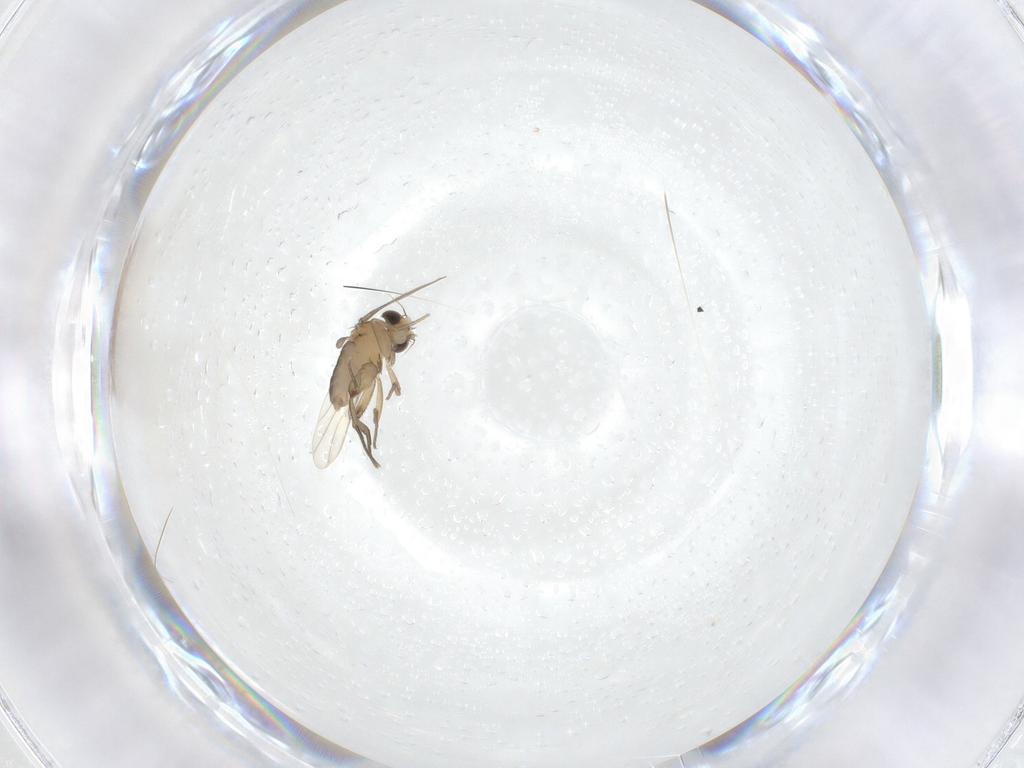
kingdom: Animalia
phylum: Arthropoda
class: Insecta
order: Diptera
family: Phoridae
